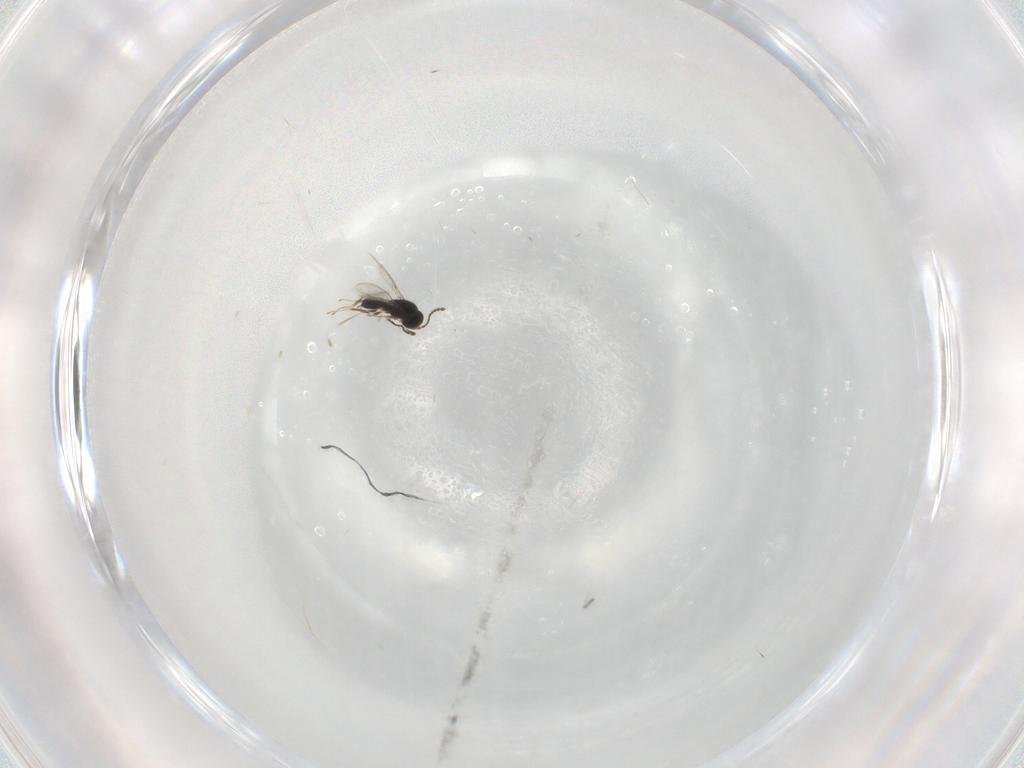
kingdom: Animalia
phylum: Arthropoda
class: Insecta
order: Hymenoptera
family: Scelionidae
